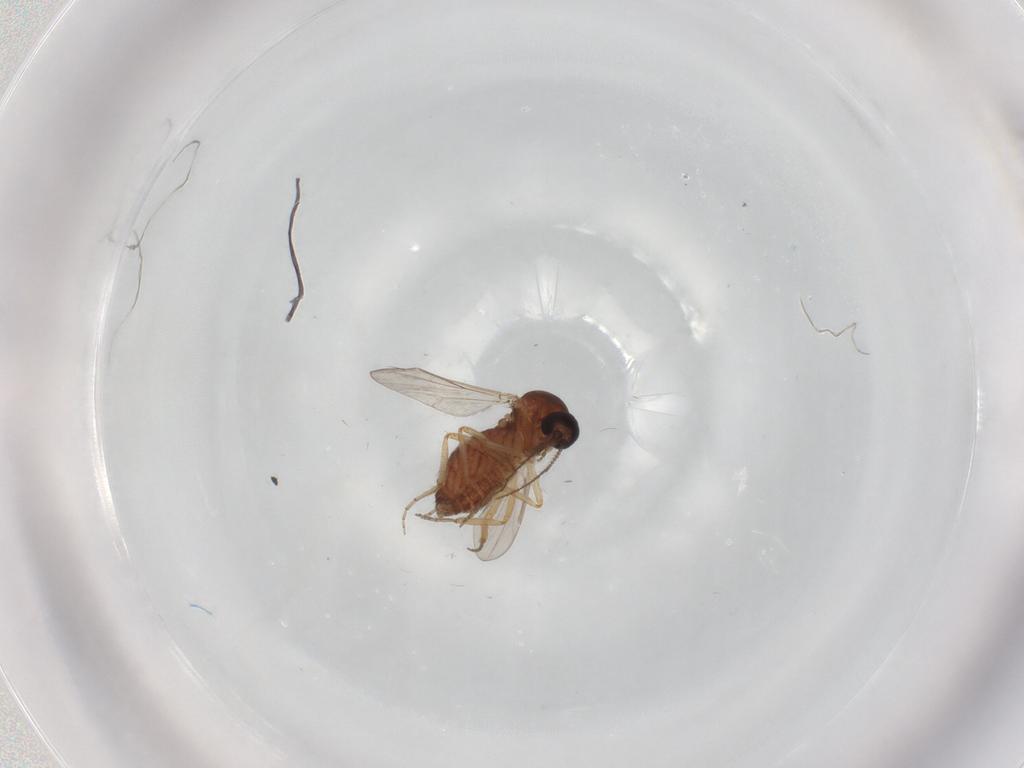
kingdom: Animalia
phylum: Arthropoda
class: Insecta
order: Diptera
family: Ceratopogonidae
